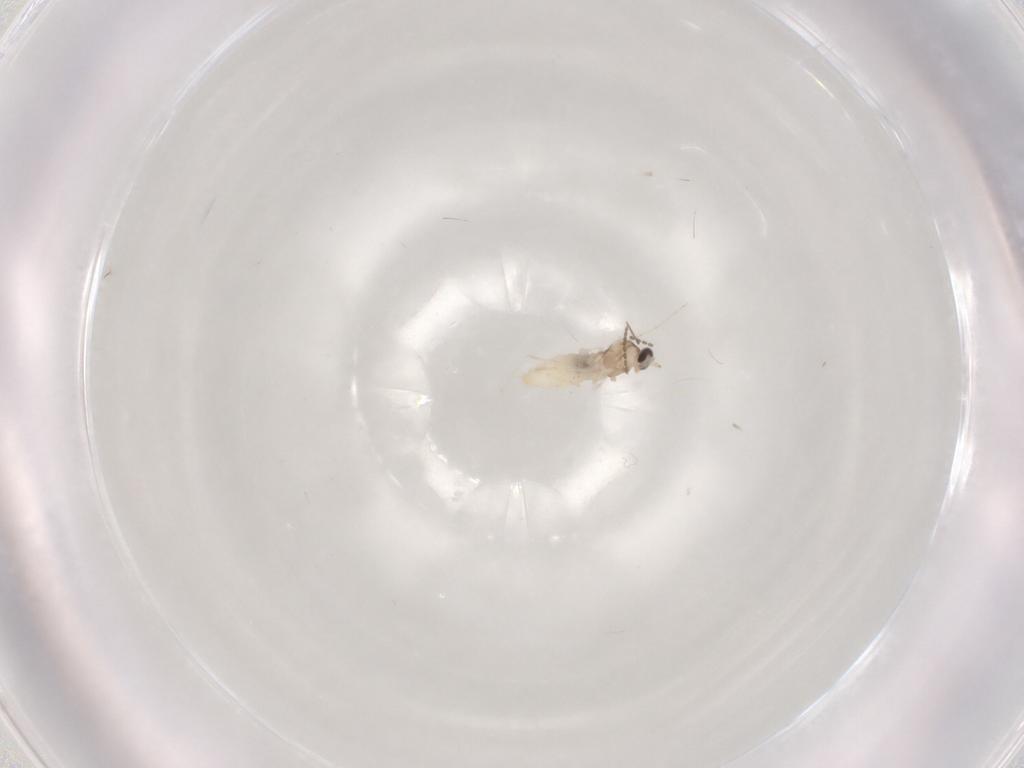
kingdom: Animalia
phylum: Arthropoda
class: Insecta
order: Diptera
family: Cecidomyiidae
